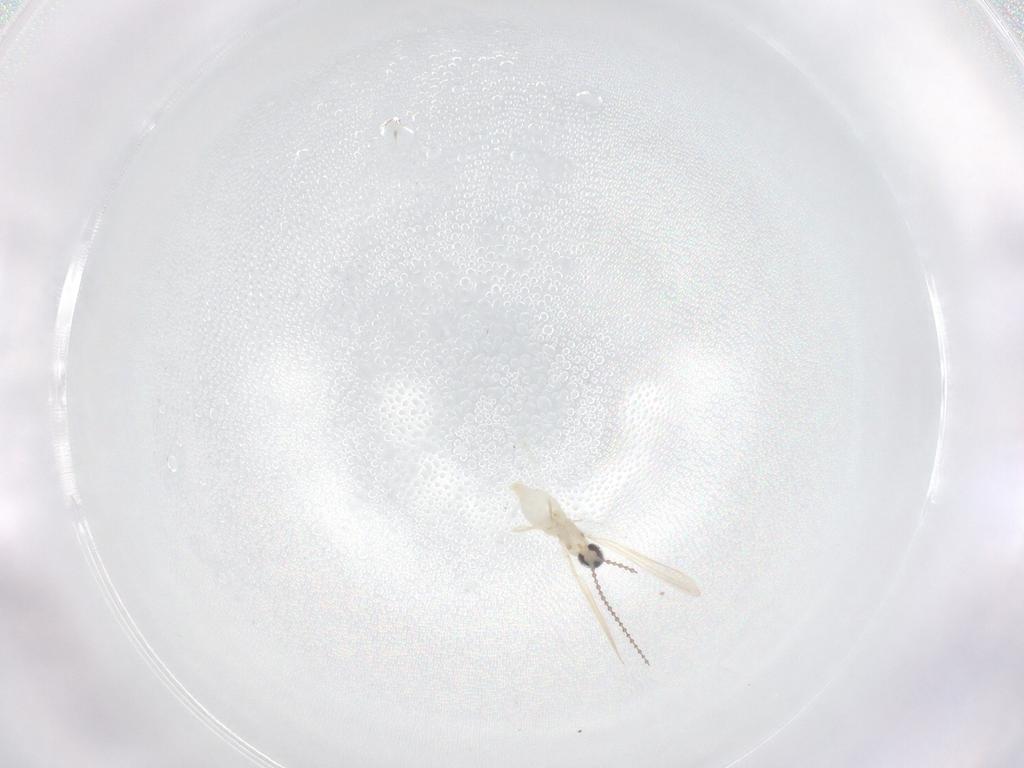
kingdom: Animalia
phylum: Arthropoda
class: Insecta
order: Diptera
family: Cecidomyiidae
